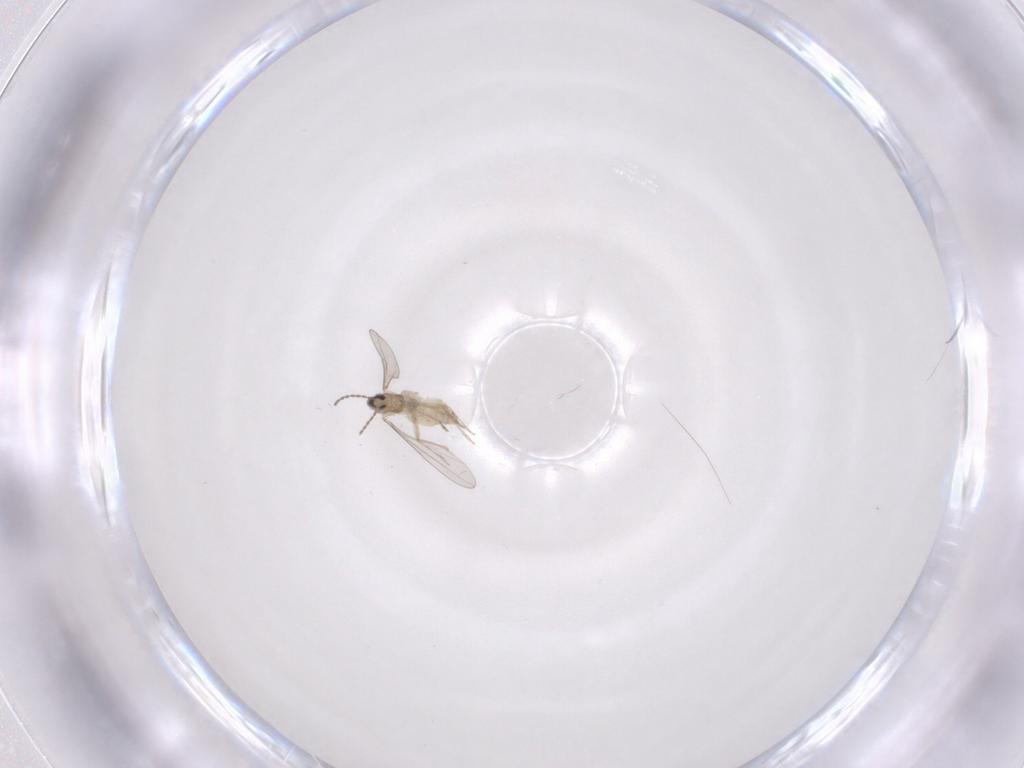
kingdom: Animalia
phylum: Arthropoda
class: Insecta
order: Diptera
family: Cecidomyiidae
